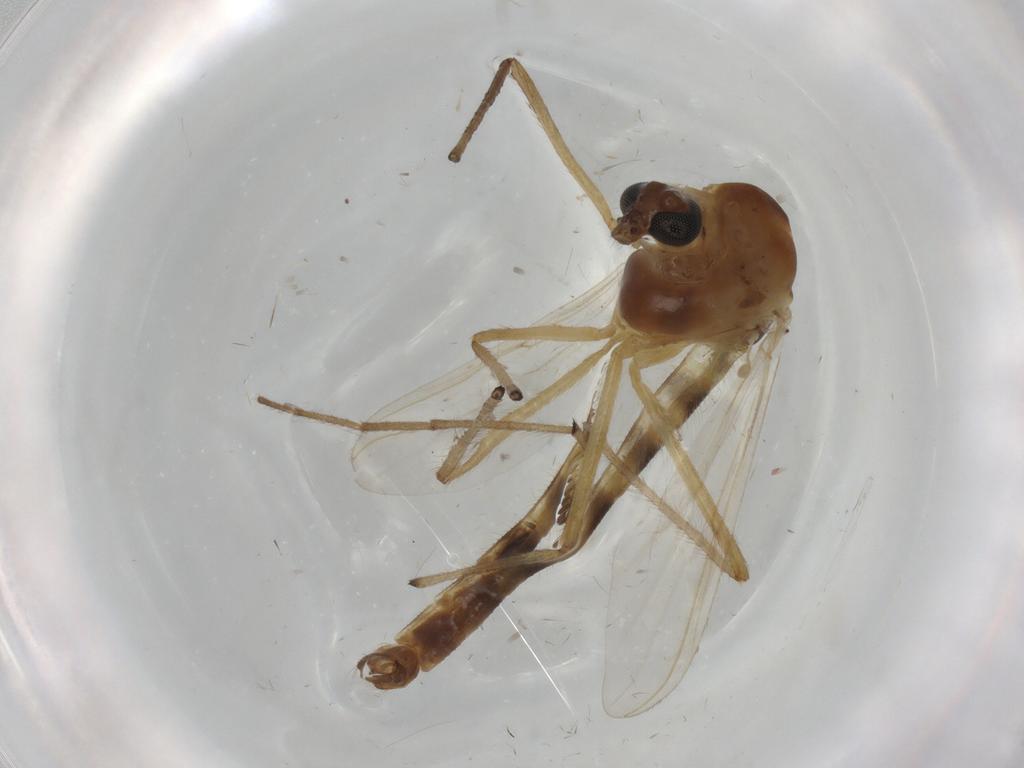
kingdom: Animalia
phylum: Arthropoda
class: Insecta
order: Diptera
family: Chironomidae
